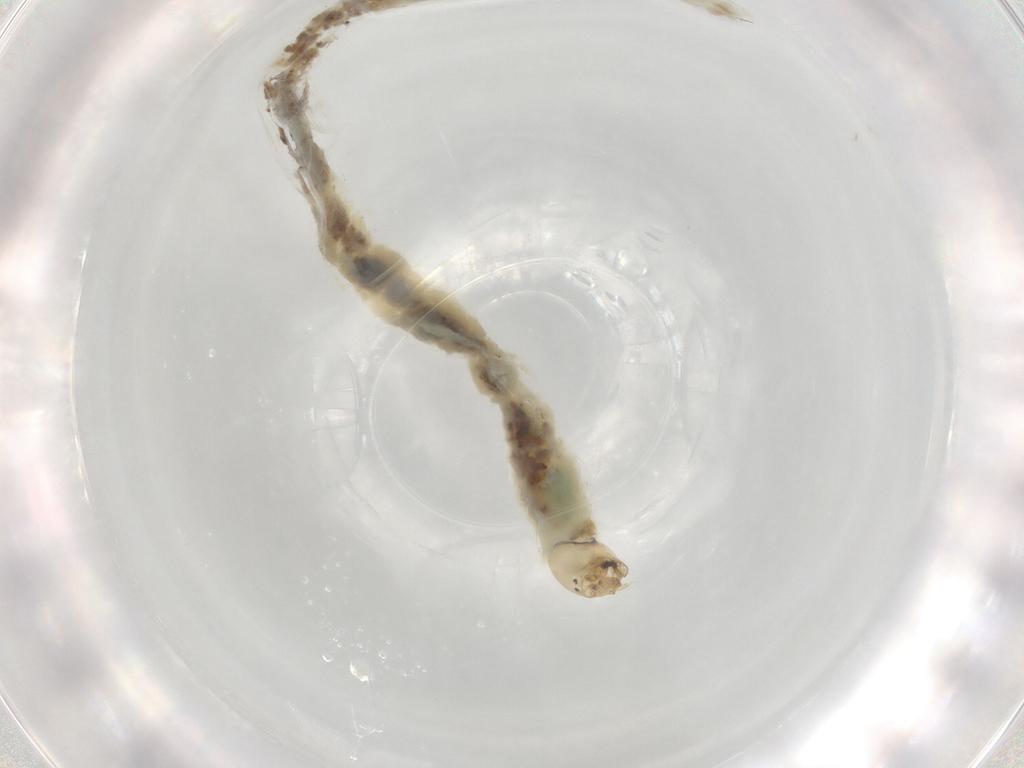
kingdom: Animalia
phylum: Arthropoda
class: Insecta
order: Diptera
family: Chironomidae
